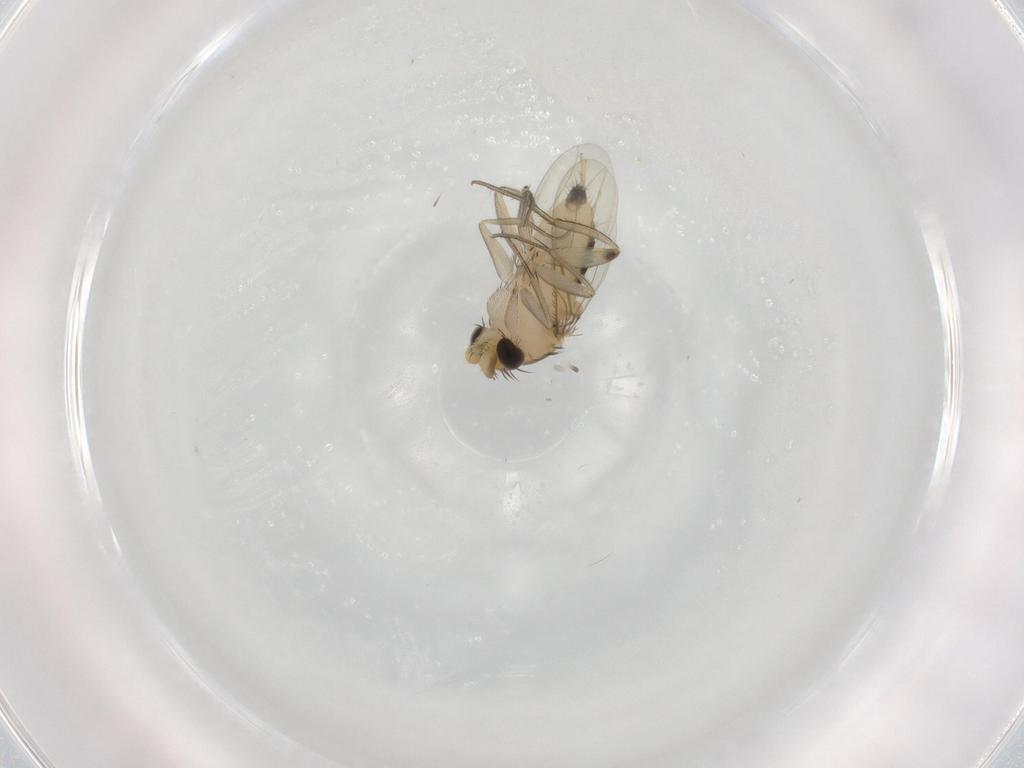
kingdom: Animalia
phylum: Arthropoda
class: Insecta
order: Diptera
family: Phoridae
